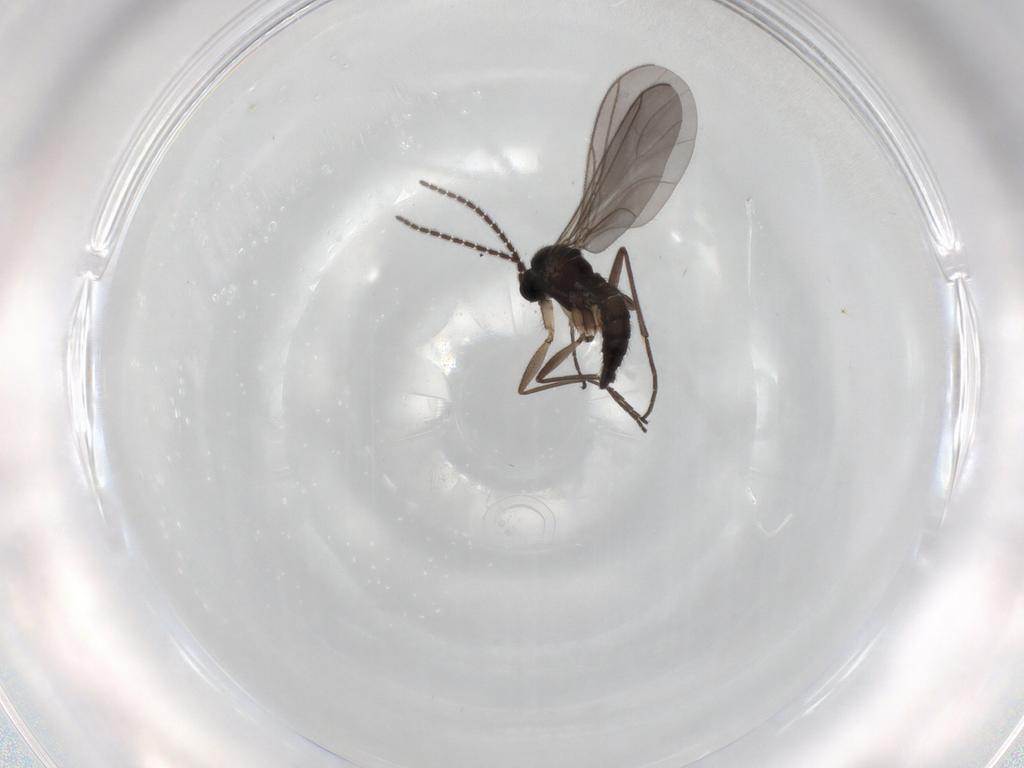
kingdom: Animalia
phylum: Arthropoda
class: Insecta
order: Diptera
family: Sciaridae
